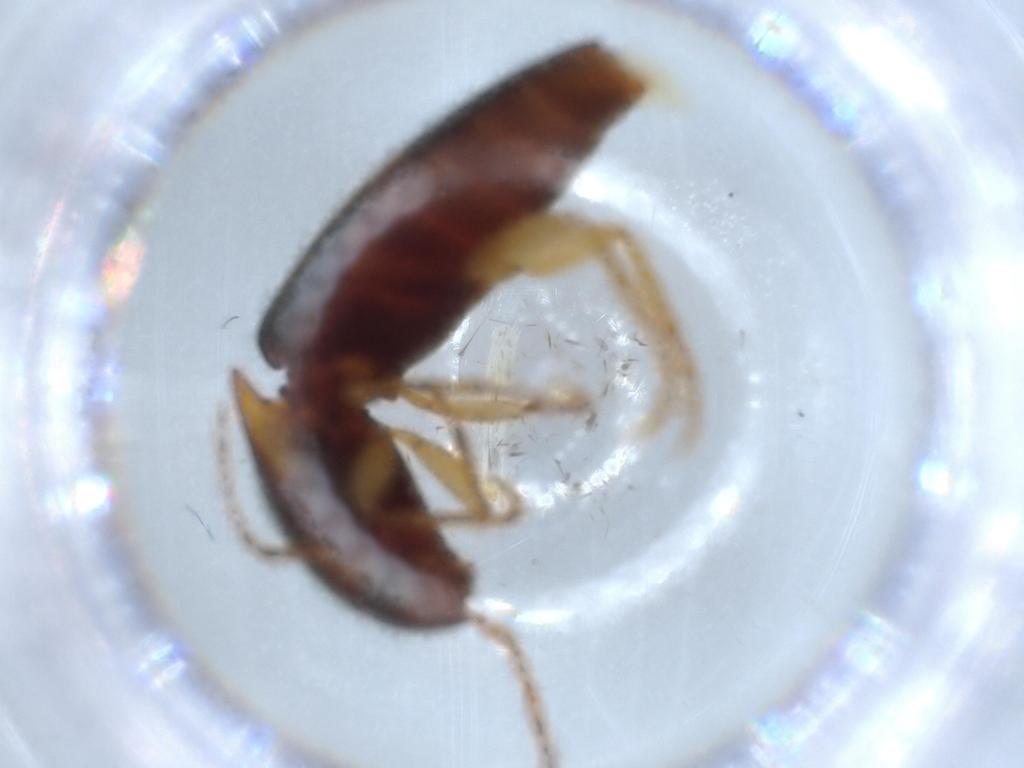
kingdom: Animalia
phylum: Arthropoda
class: Insecta
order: Coleoptera
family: Elateridae
